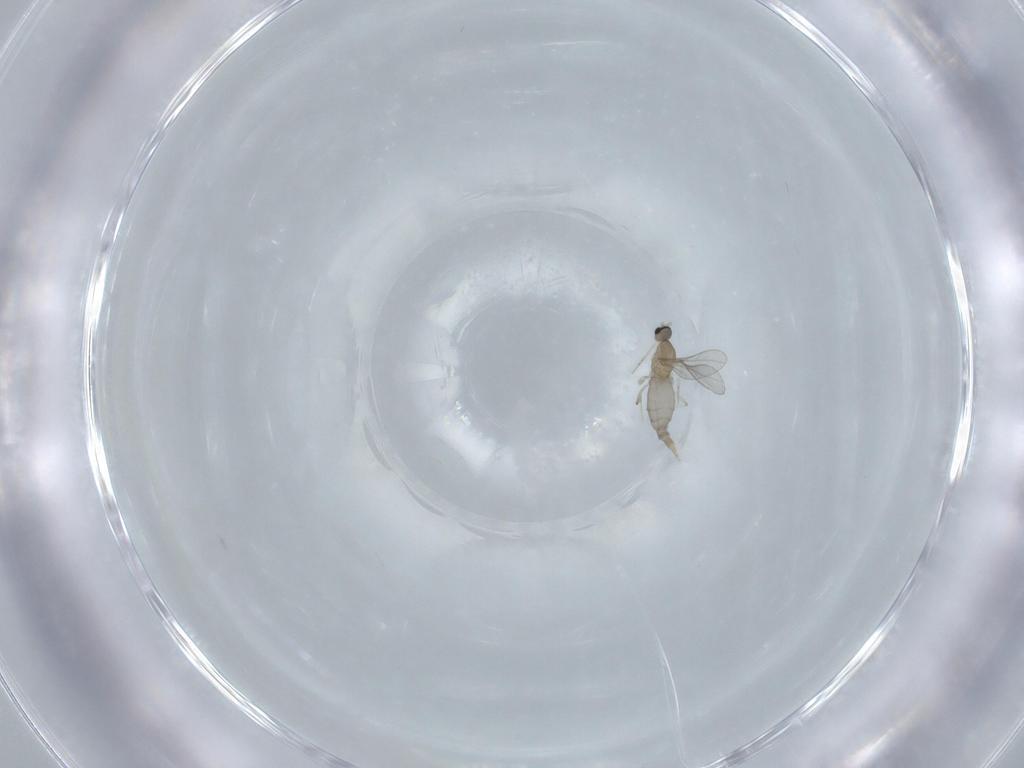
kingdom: Animalia
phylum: Arthropoda
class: Insecta
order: Diptera
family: Cecidomyiidae
